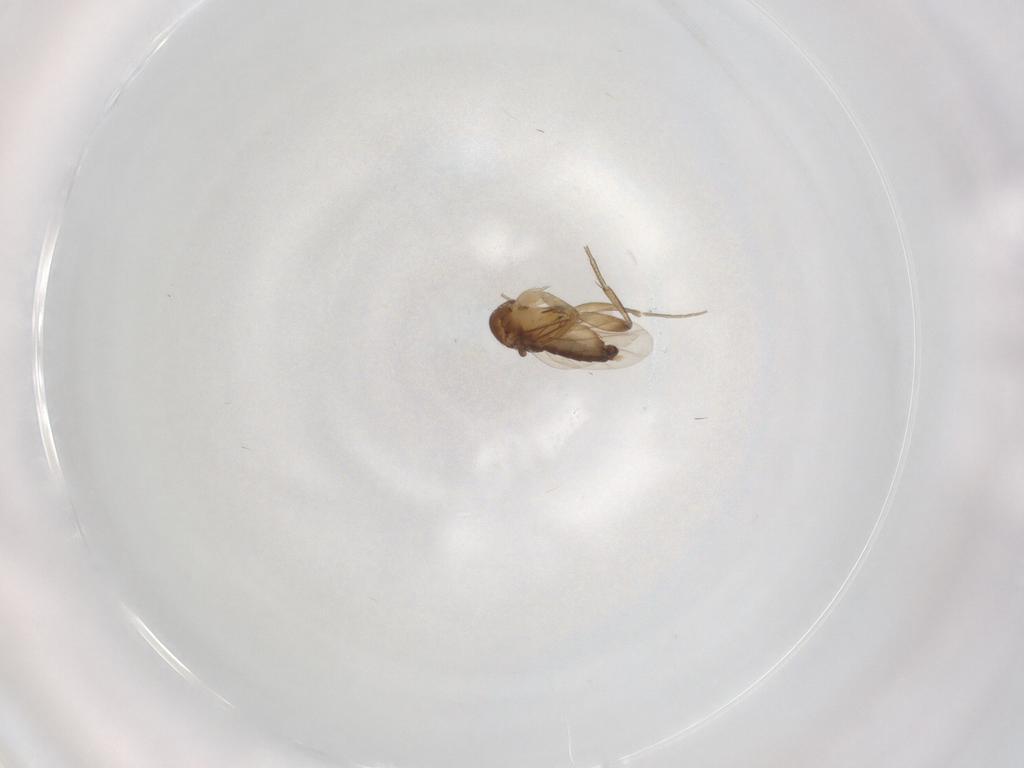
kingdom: Animalia
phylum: Arthropoda
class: Insecta
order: Diptera
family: Phoridae
